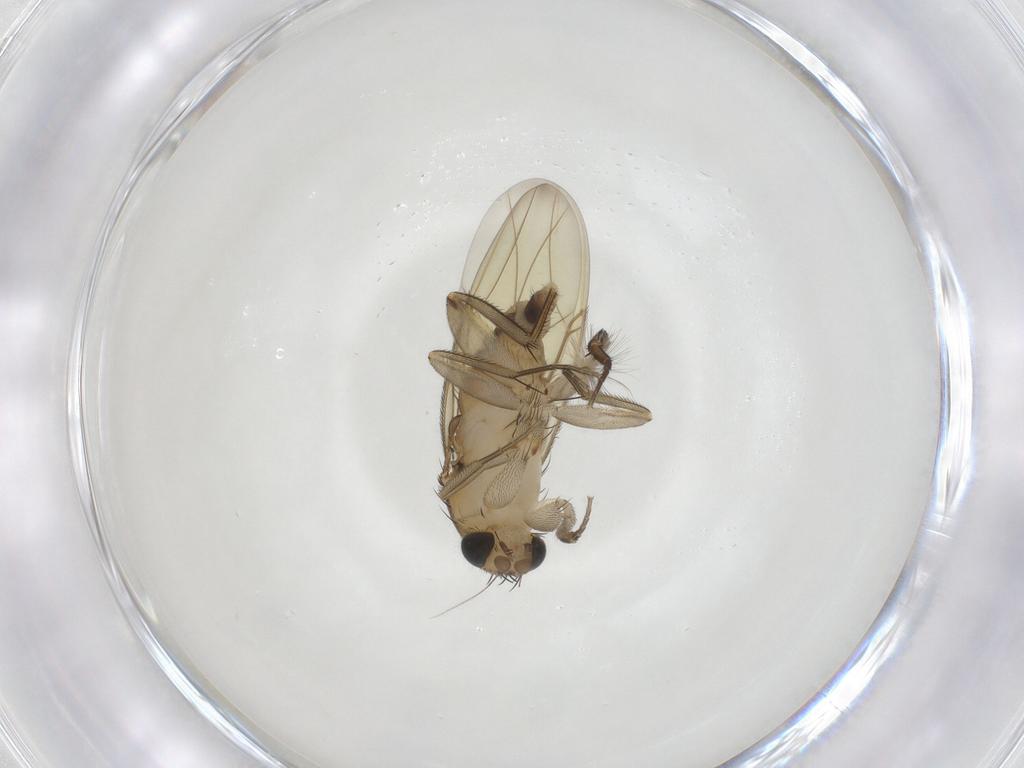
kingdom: Animalia
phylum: Arthropoda
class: Insecta
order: Diptera
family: Phoridae
